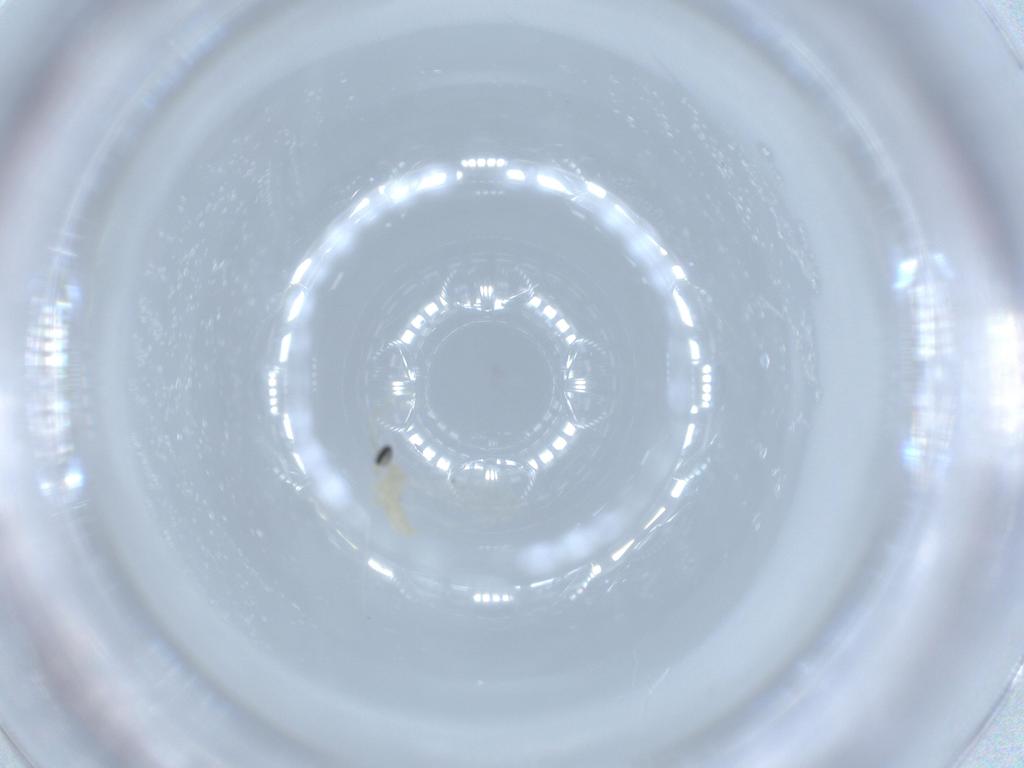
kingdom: Animalia
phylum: Arthropoda
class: Insecta
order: Diptera
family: Cecidomyiidae
